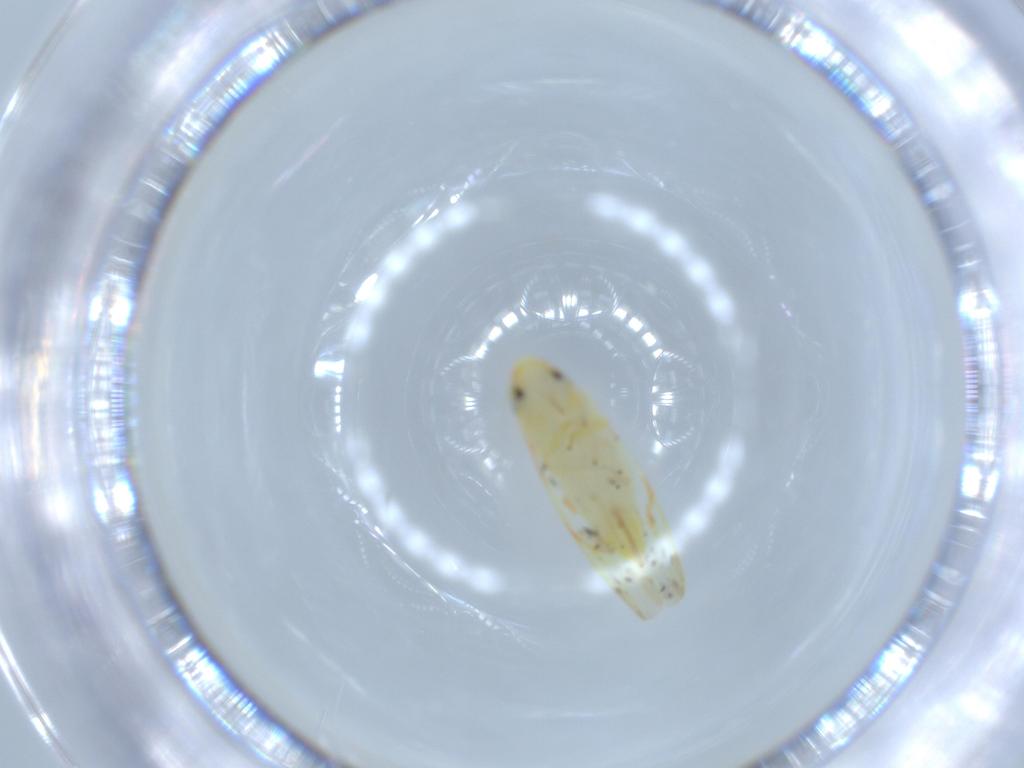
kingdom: Animalia
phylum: Arthropoda
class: Insecta
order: Hemiptera
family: Cicadellidae
